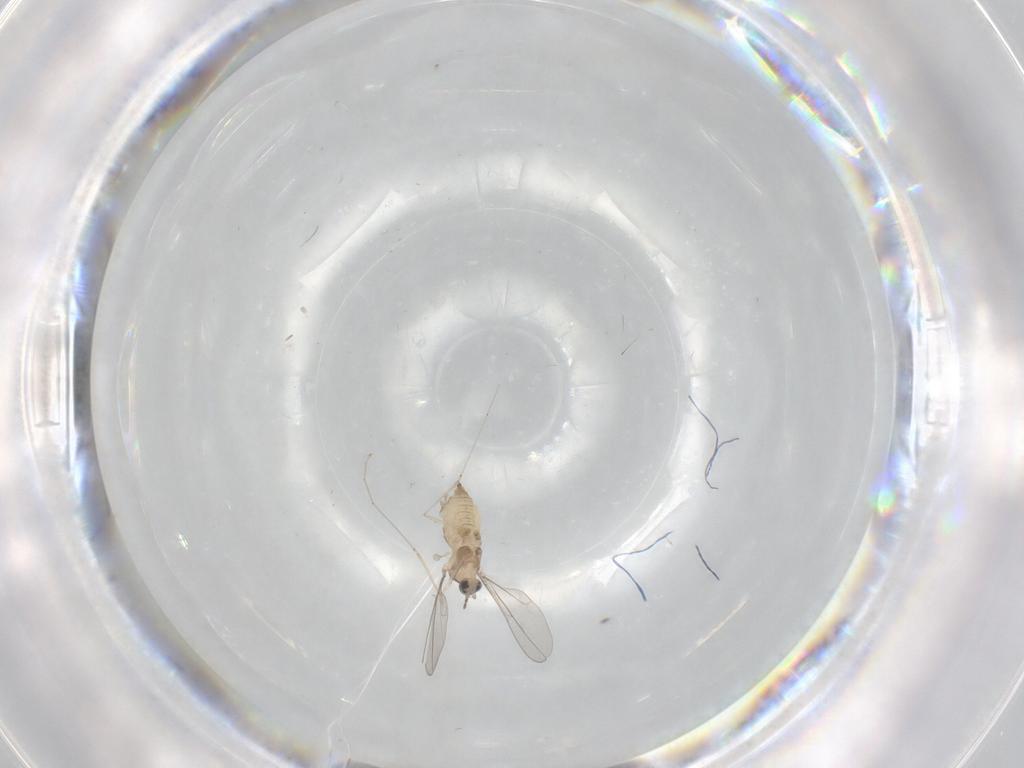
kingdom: Animalia
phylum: Arthropoda
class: Insecta
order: Diptera
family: Cecidomyiidae
